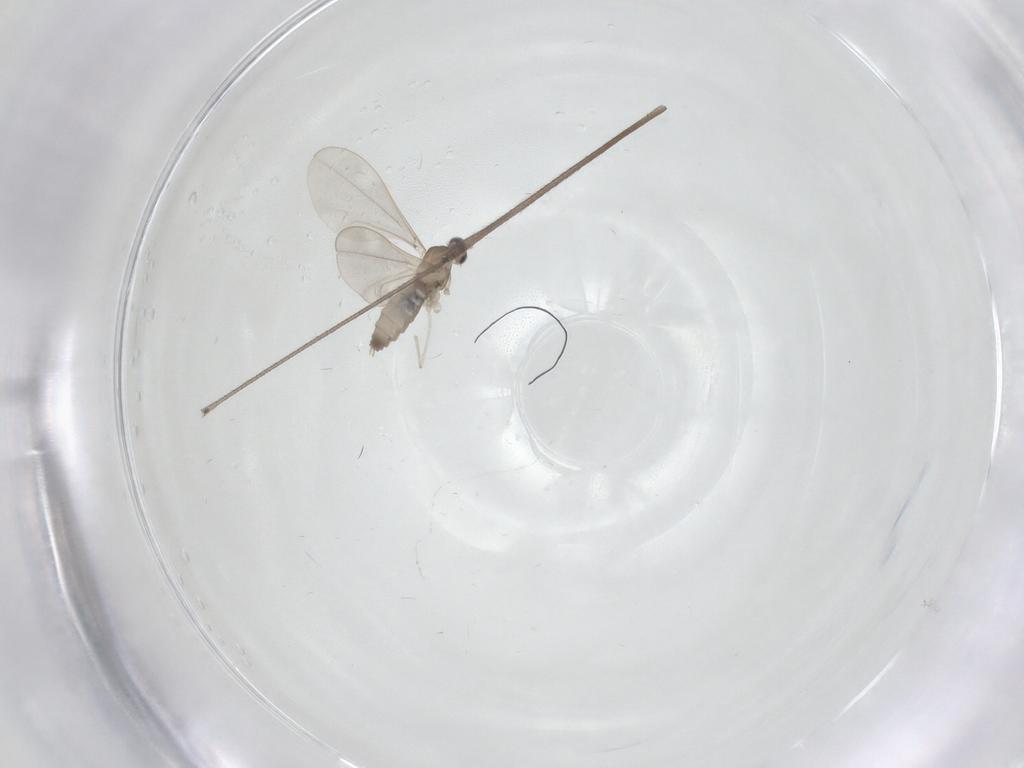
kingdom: Animalia
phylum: Arthropoda
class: Insecta
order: Diptera
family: Cecidomyiidae
